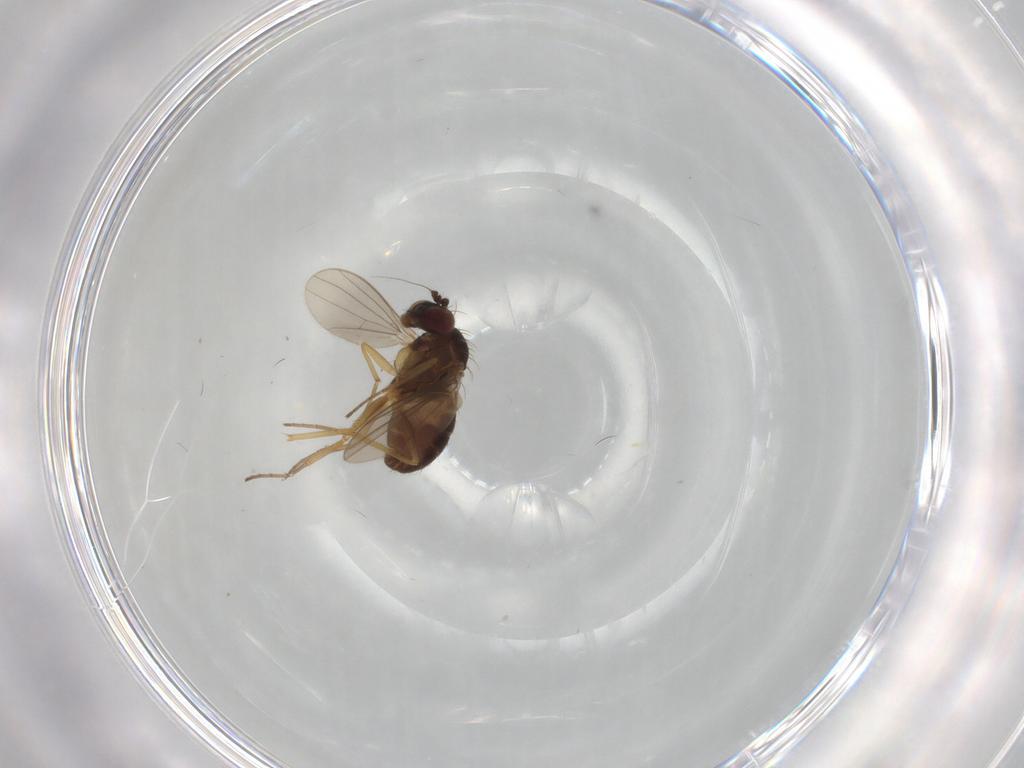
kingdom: Animalia
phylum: Arthropoda
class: Insecta
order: Diptera
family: Dolichopodidae
